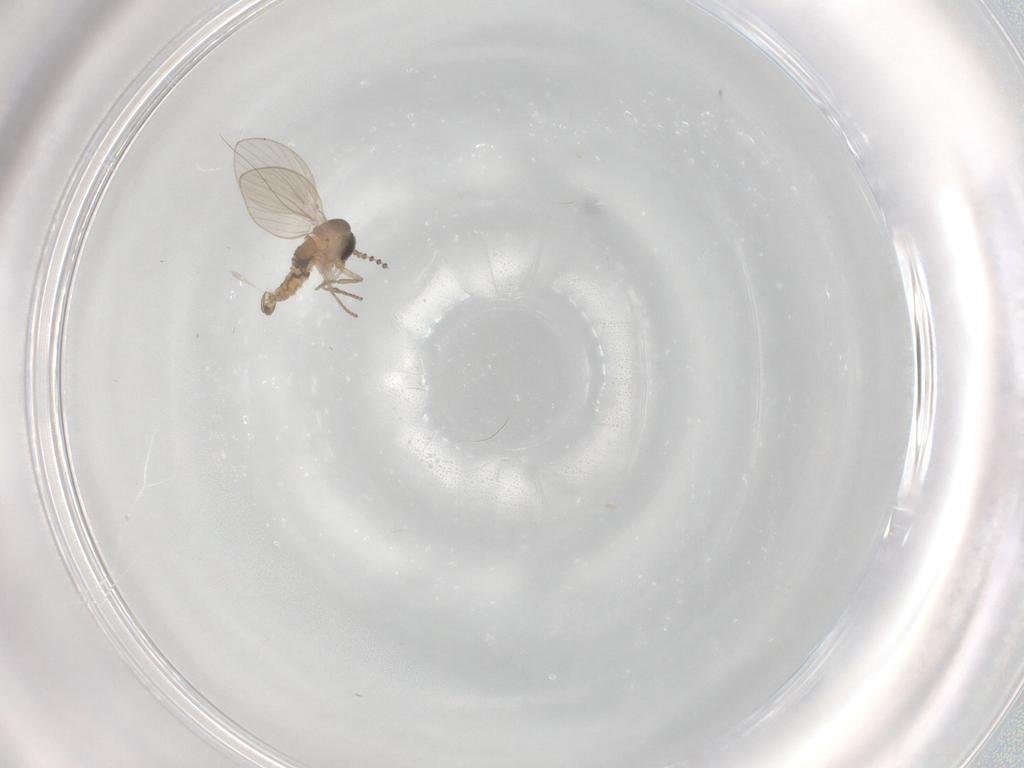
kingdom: Animalia
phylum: Arthropoda
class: Insecta
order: Diptera
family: Psychodidae
